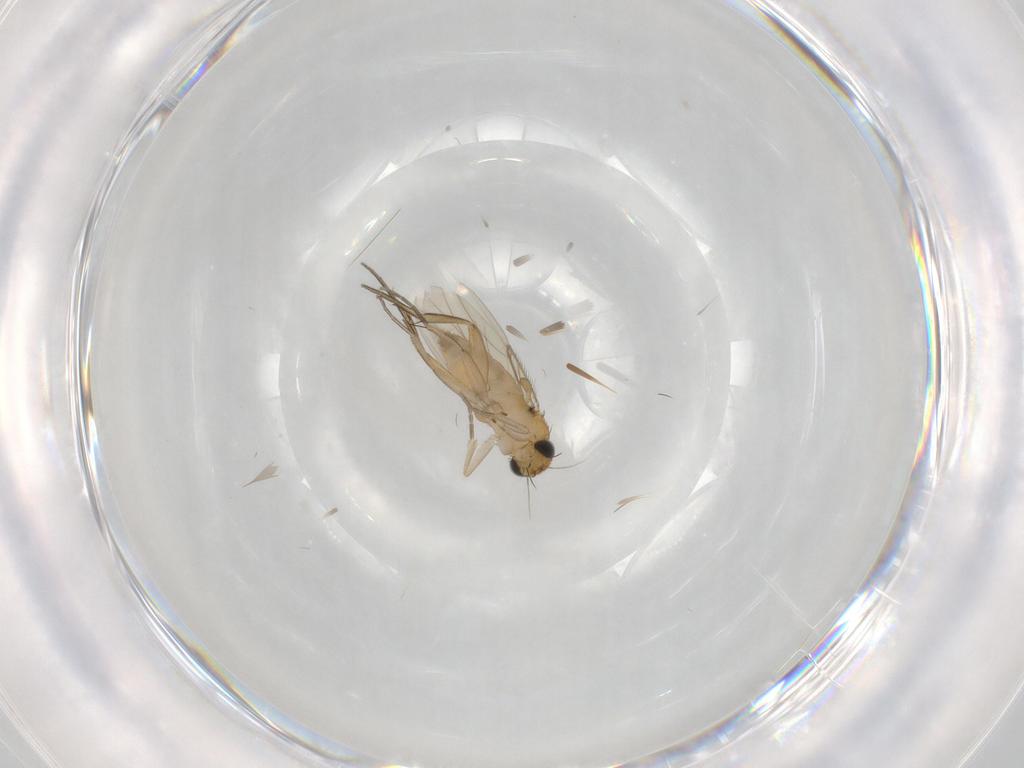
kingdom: Animalia
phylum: Arthropoda
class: Insecta
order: Diptera
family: Phoridae
